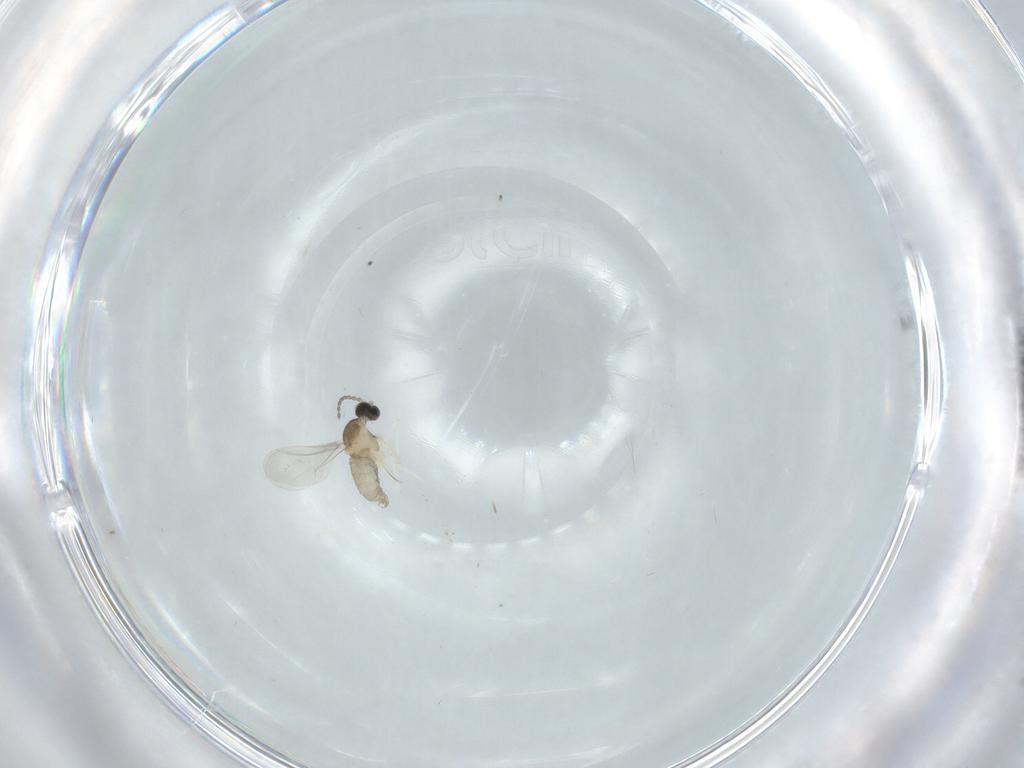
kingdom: Animalia
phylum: Arthropoda
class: Insecta
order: Diptera
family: Cecidomyiidae
